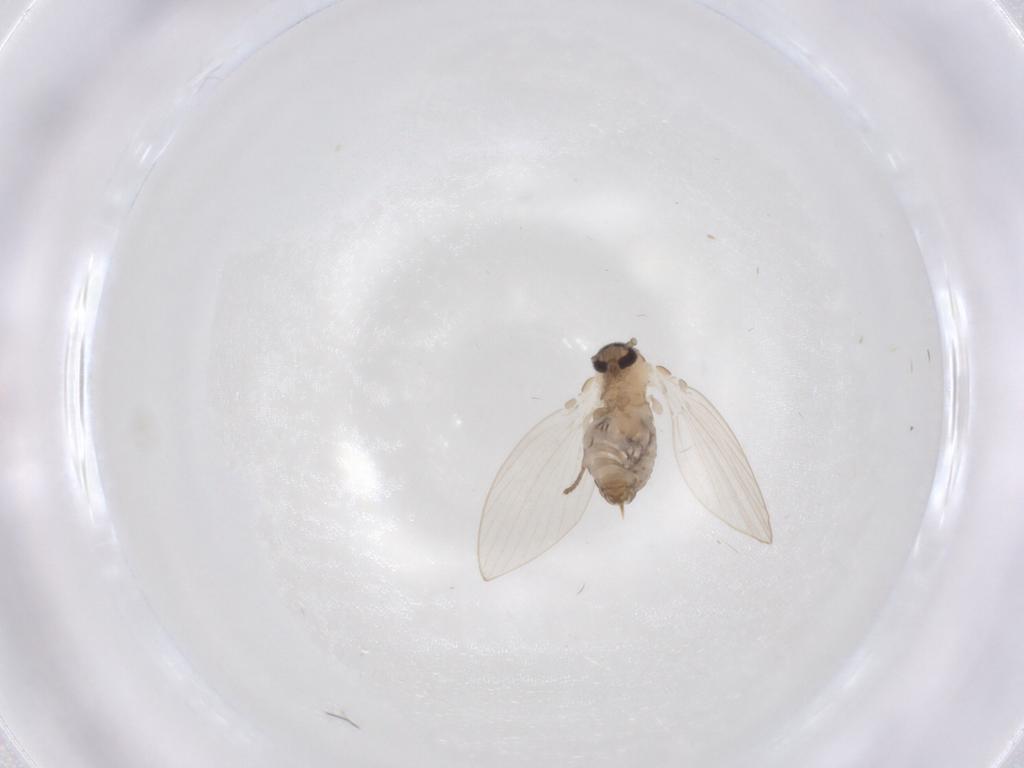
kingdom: Animalia
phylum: Arthropoda
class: Insecta
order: Diptera
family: Psychodidae
